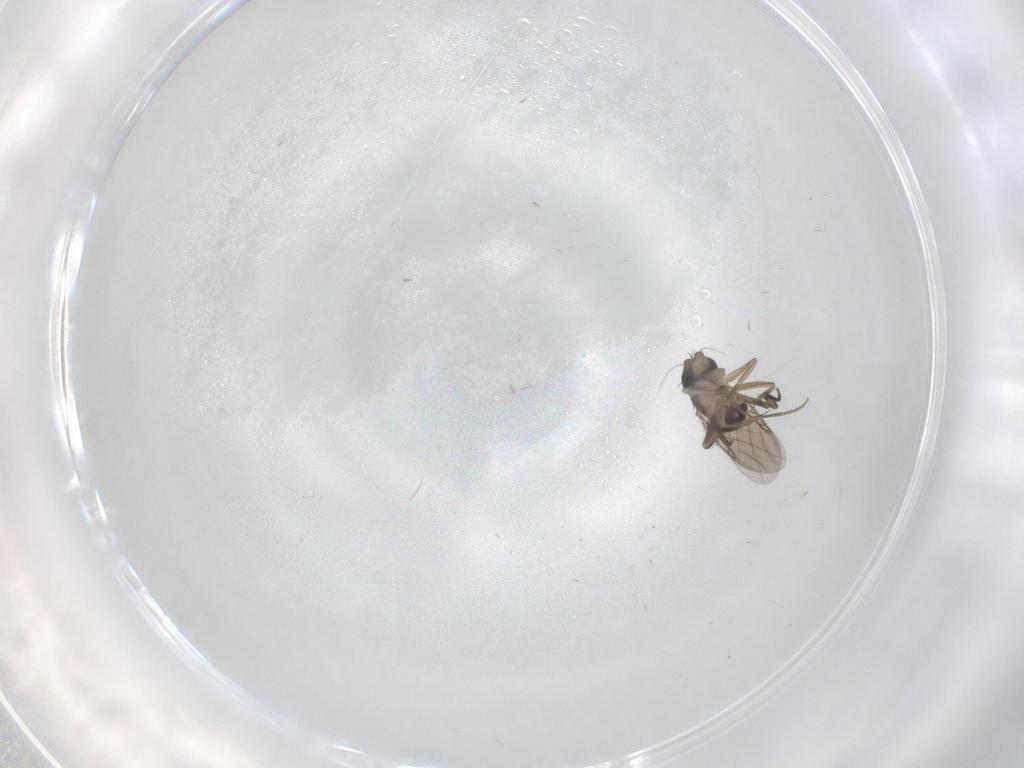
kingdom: Animalia
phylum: Arthropoda
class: Insecta
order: Diptera
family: Phoridae
